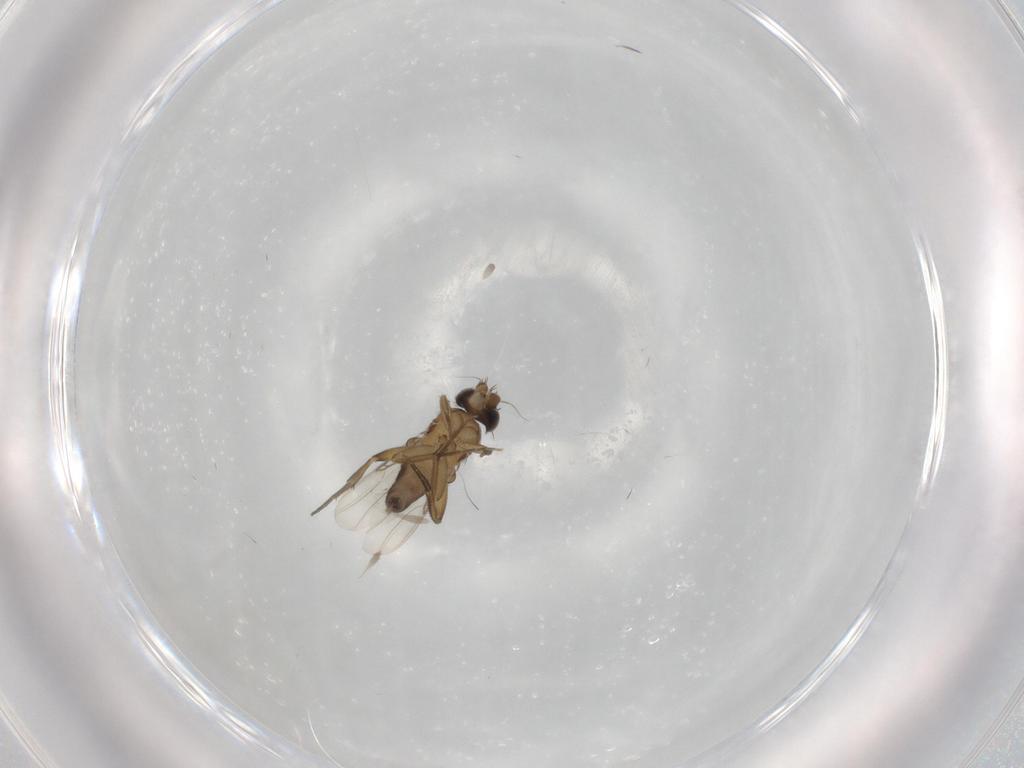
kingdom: Animalia
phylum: Arthropoda
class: Insecta
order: Diptera
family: Phoridae
